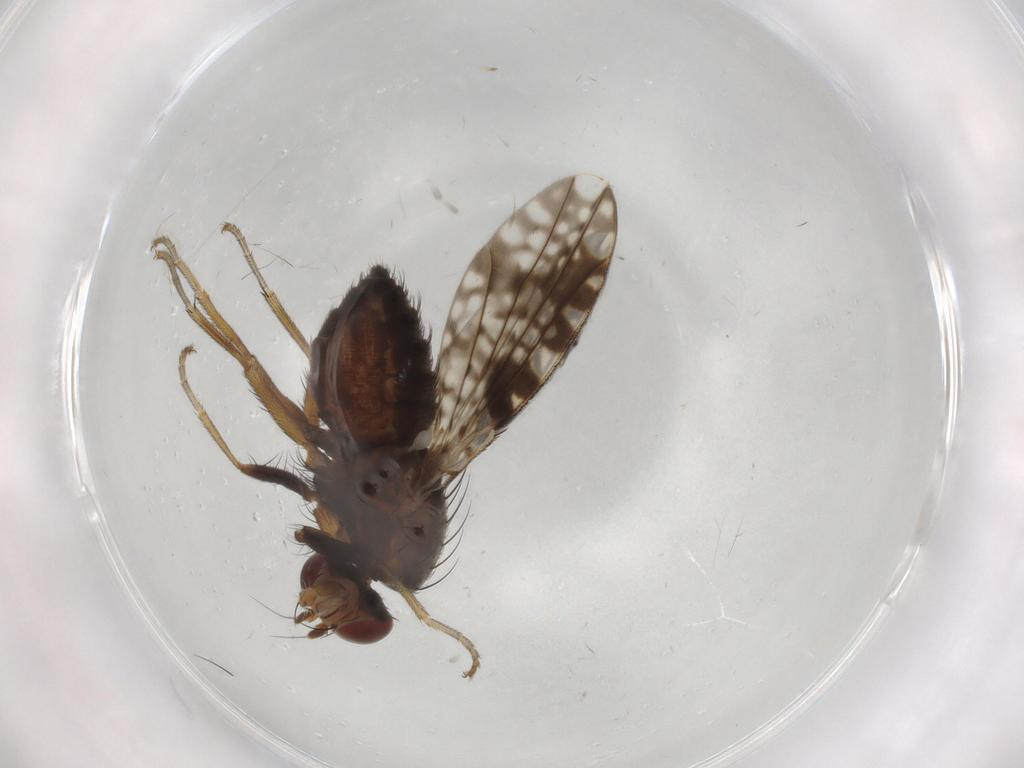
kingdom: Animalia
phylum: Arthropoda
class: Insecta
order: Diptera
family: Tephritidae
